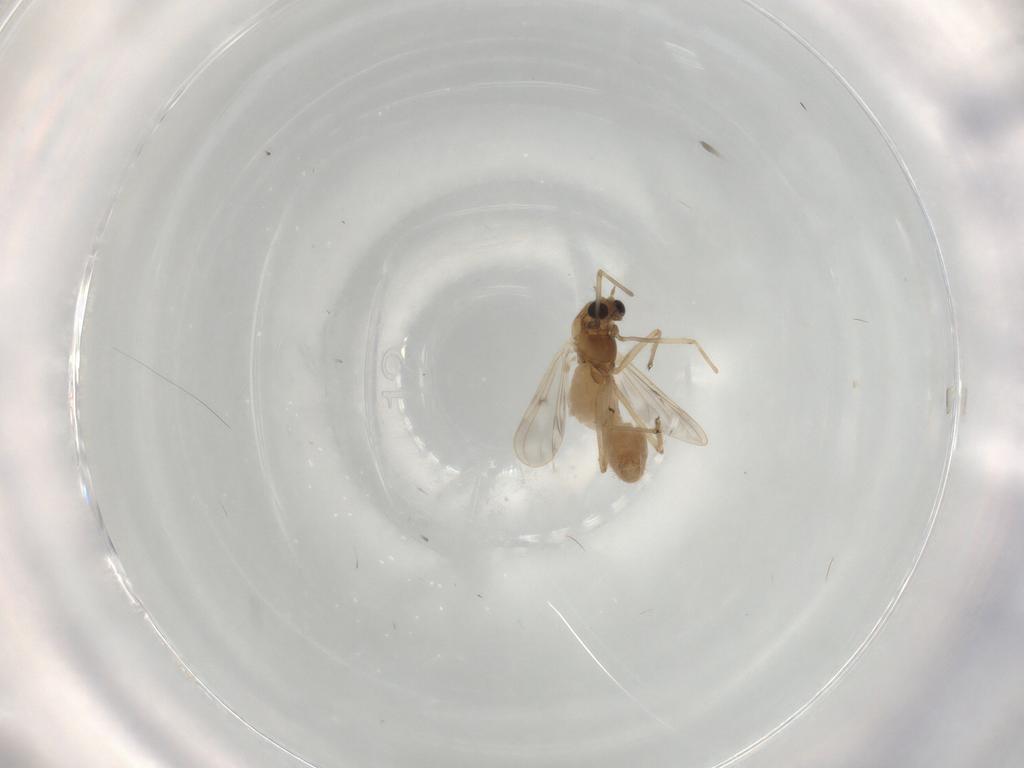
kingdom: Animalia
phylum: Arthropoda
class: Insecta
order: Diptera
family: Chironomidae
